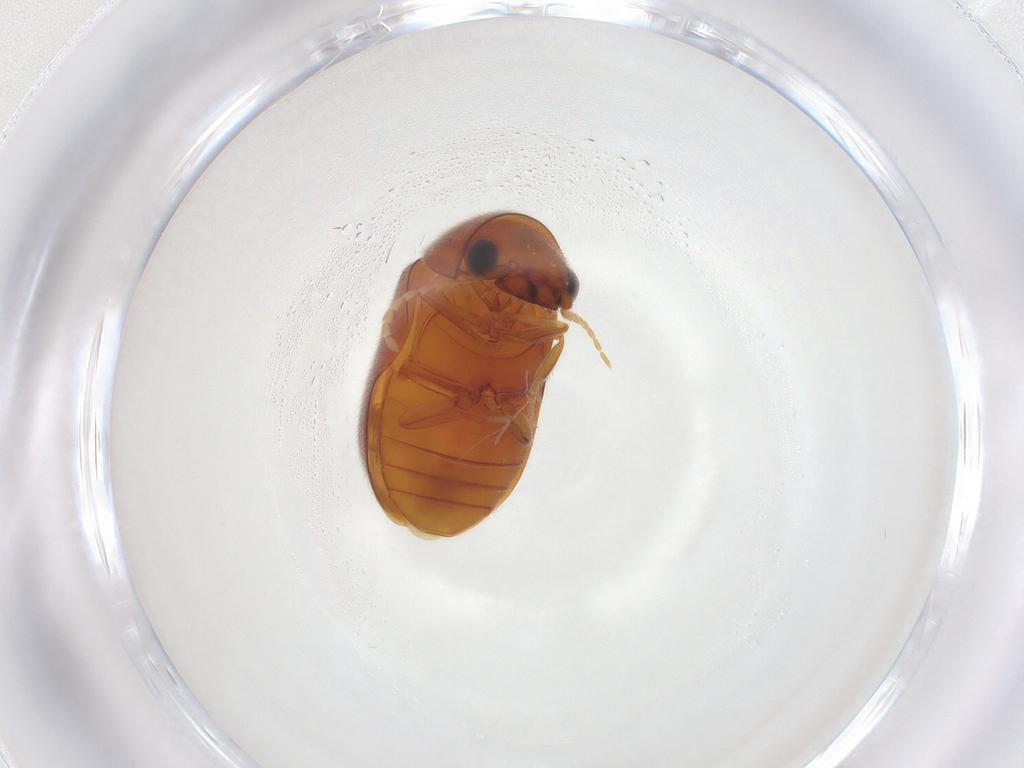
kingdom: Animalia
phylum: Arthropoda
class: Insecta
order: Coleoptera
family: Ptinidae
